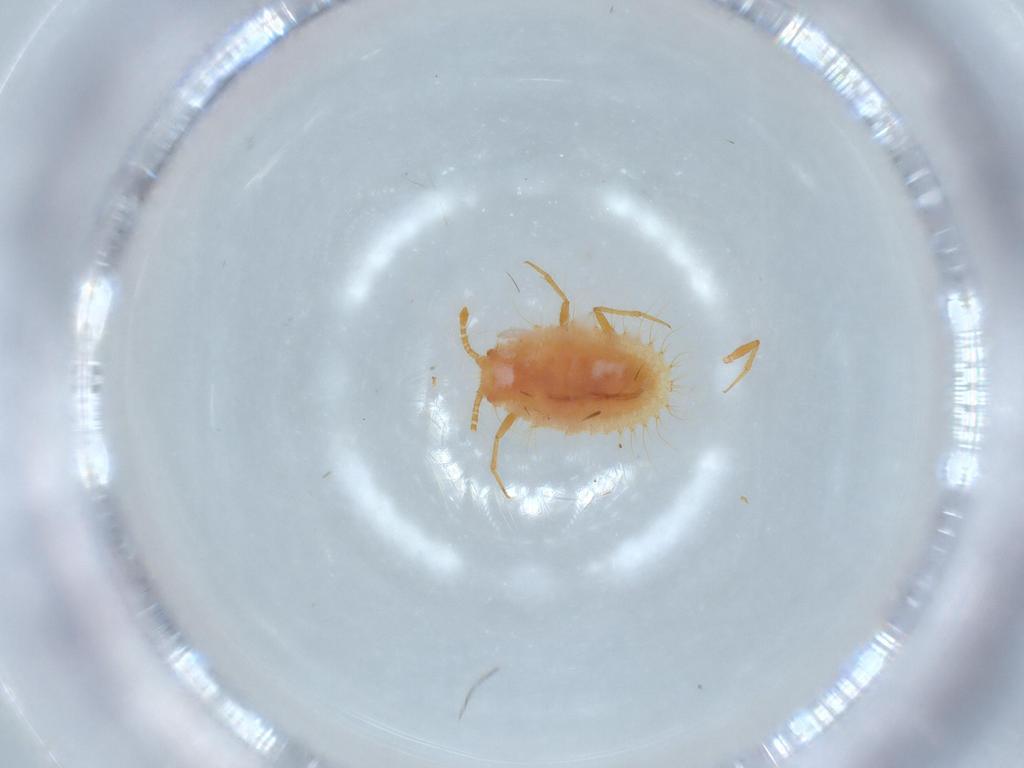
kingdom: Animalia
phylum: Arthropoda
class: Insecta
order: Hemiptera
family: Coccoidea_incertae_sedis
